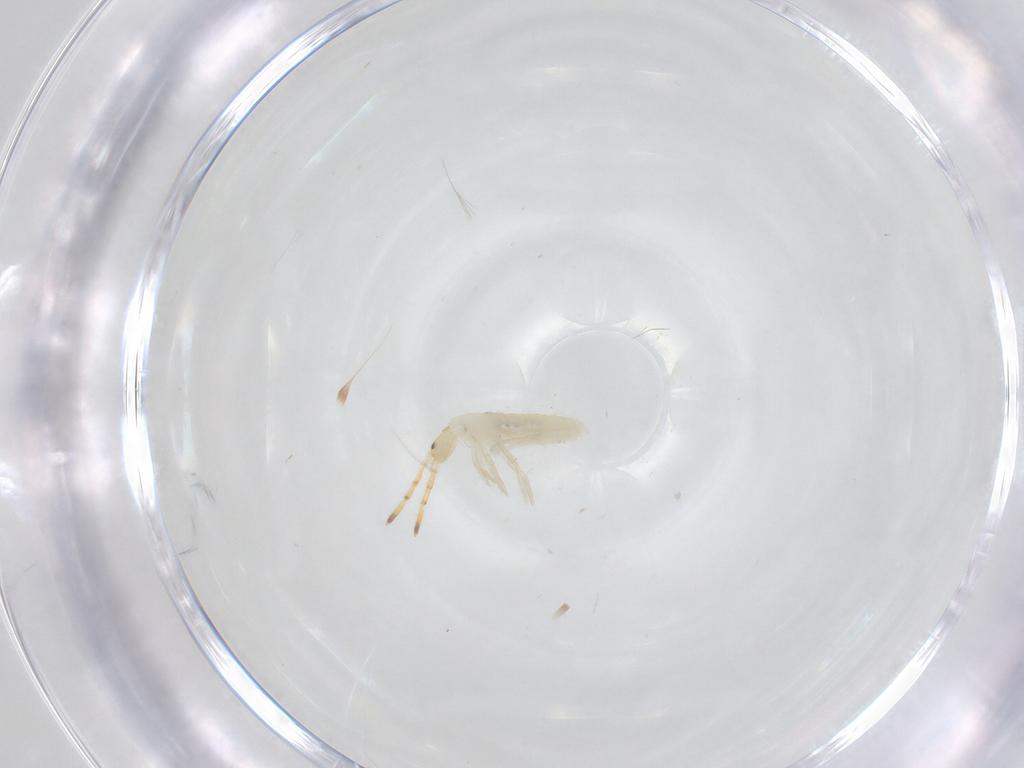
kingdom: Animalia
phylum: Arthropoda
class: Collembola
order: Entomobryomorpha
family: Entomobryidae
